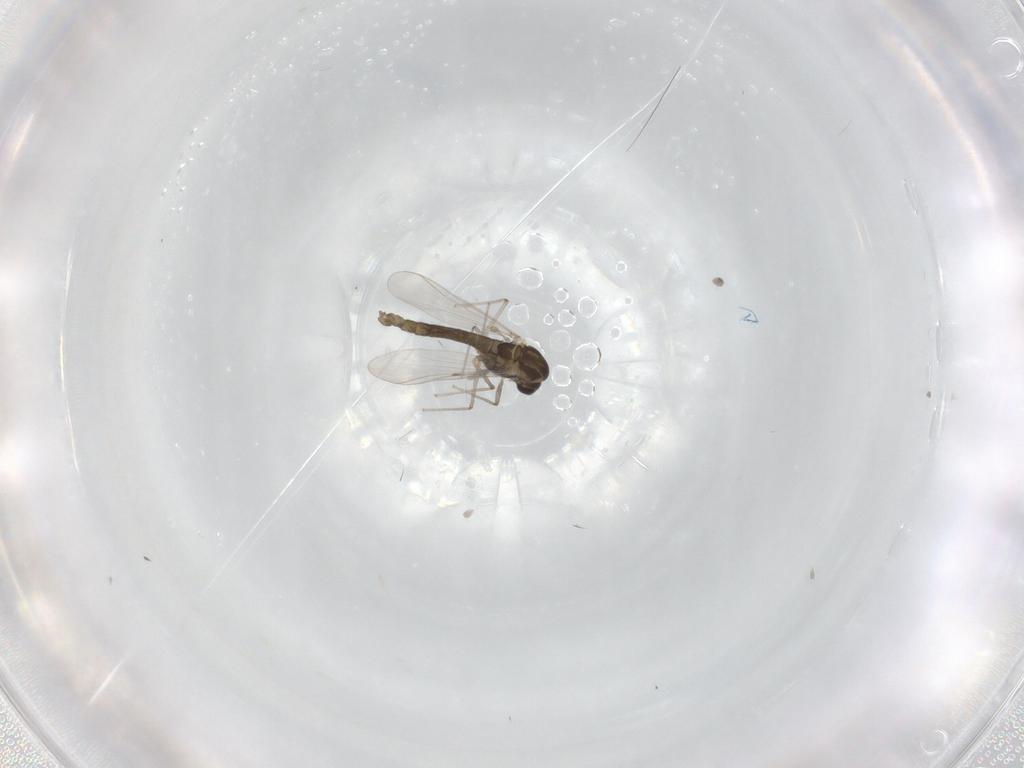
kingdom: Animalia
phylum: Arthropoda
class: Insecta
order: Diptera
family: Chironomidae
